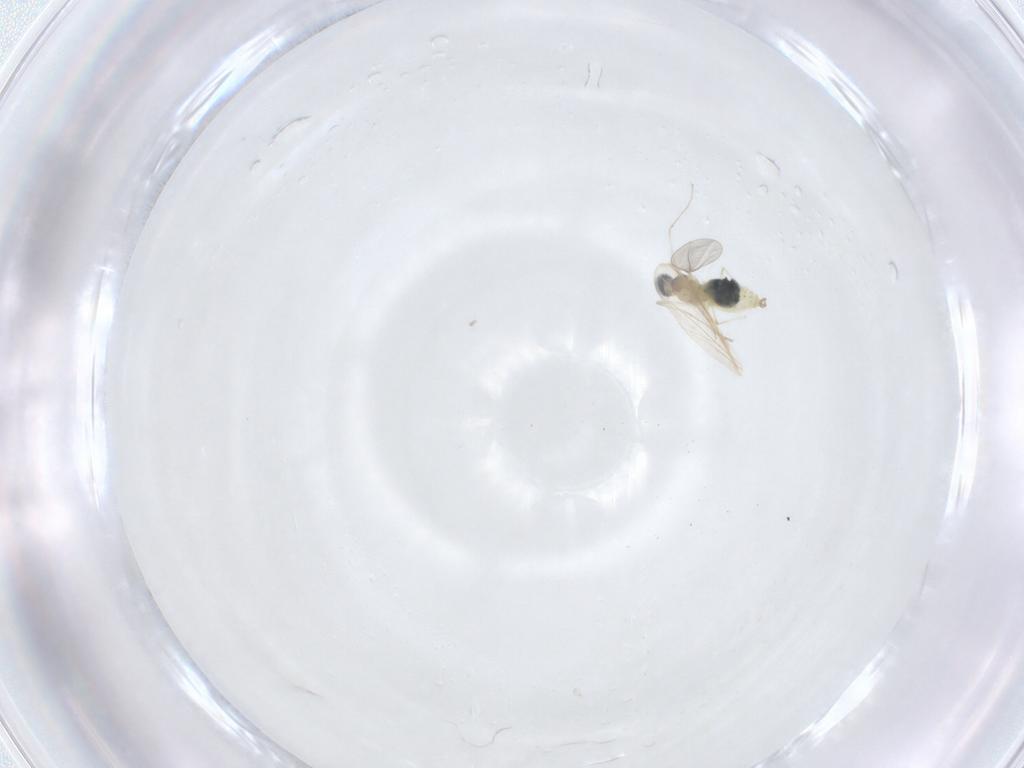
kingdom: Animalia
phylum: Arthropoda
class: Insecta
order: Diptera
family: Cecidomyiidae
